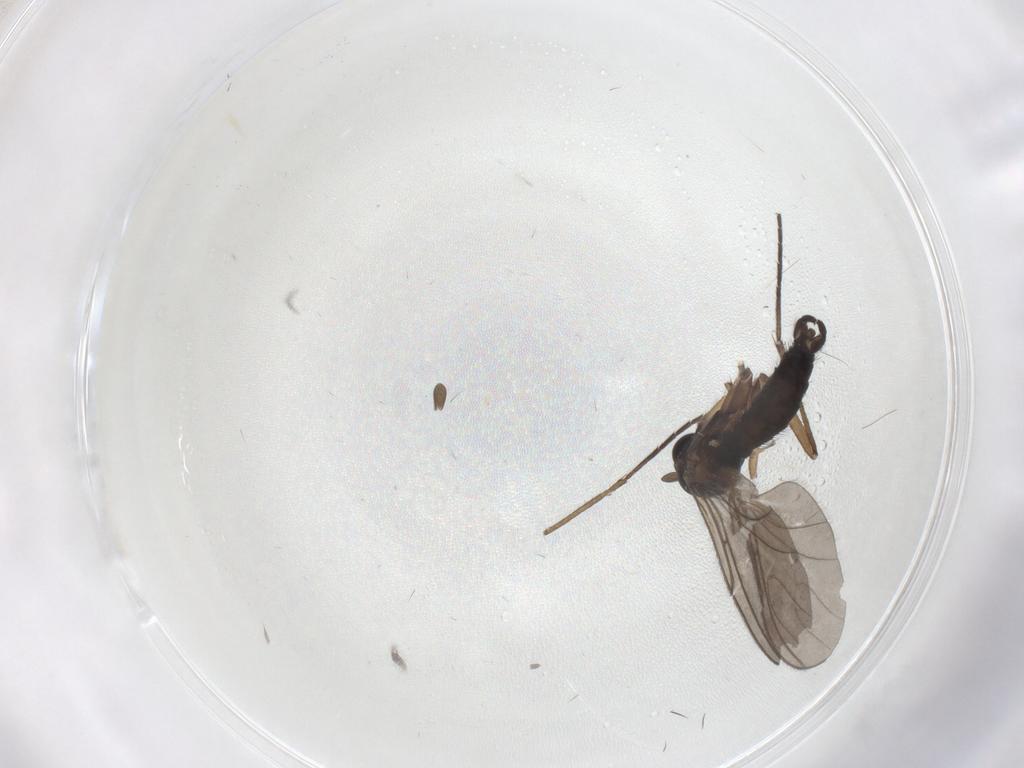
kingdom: Animalia
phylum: Arthropoda
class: Insecta
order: Diptera
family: Sciaridae
